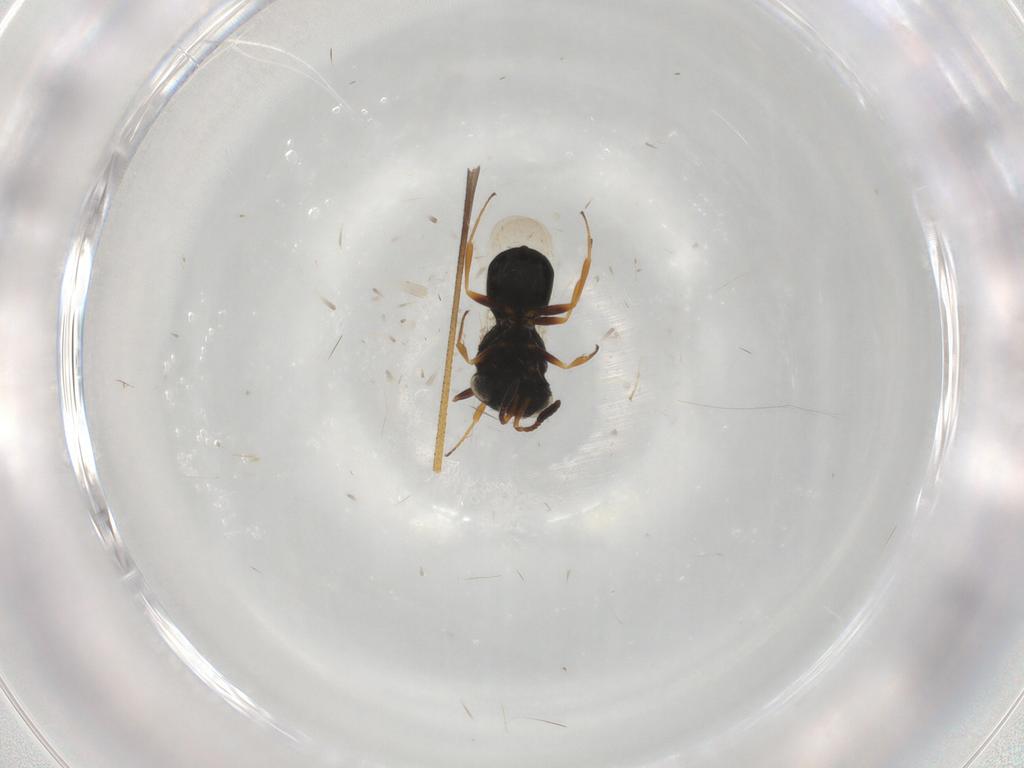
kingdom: Animalia
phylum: Arthropoda
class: Insecta
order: Hymenoptera
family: Scelionidae
